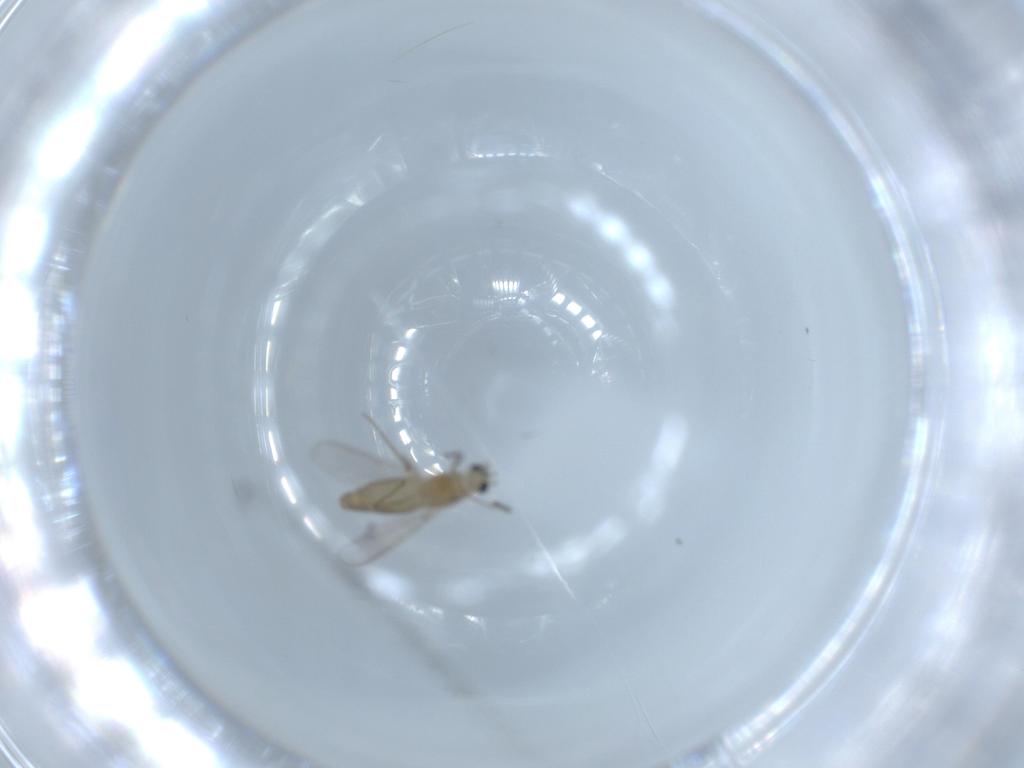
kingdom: Animalia
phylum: Arthropoda
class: Insecta
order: Diptera
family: Chironomidae
